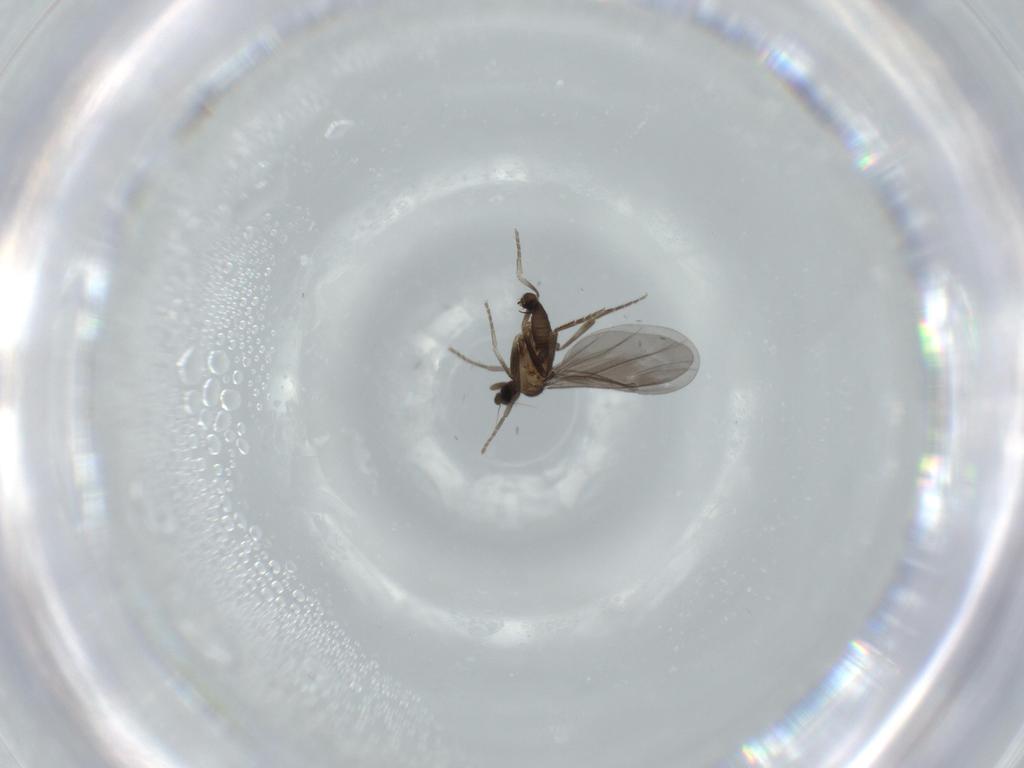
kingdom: Animalia
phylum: Arthropoda
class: Insecta
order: Diptera
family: Phoridae
